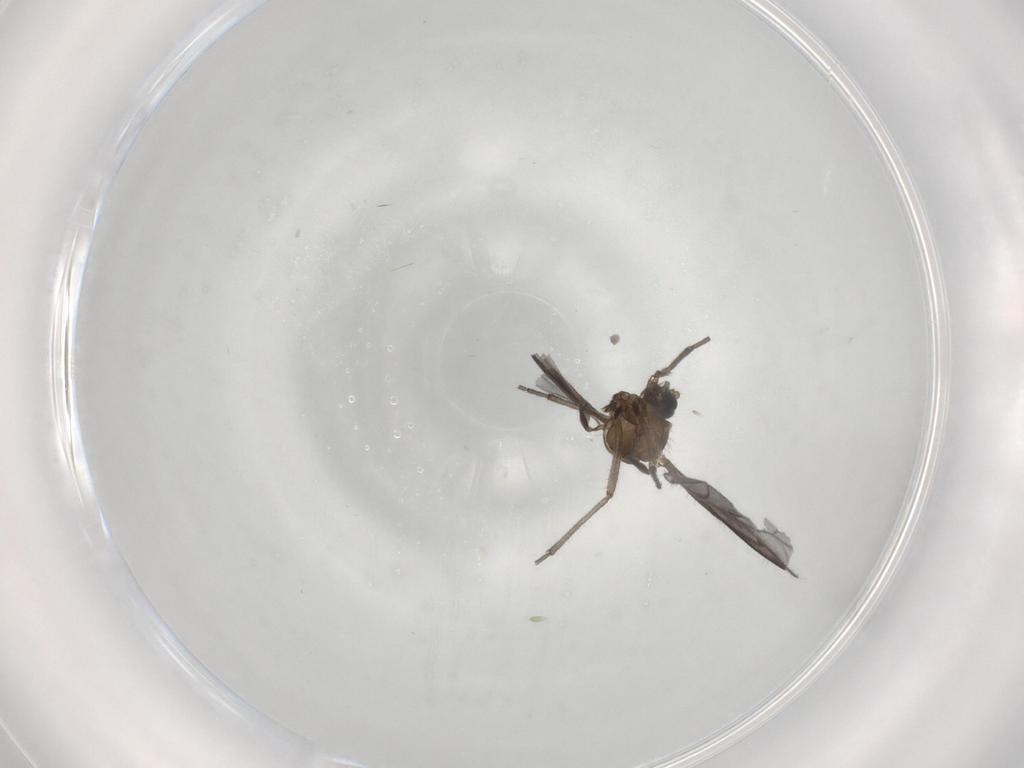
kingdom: Animalia
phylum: Arthropoda
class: Insecta
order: Diptera
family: Sciaridae
